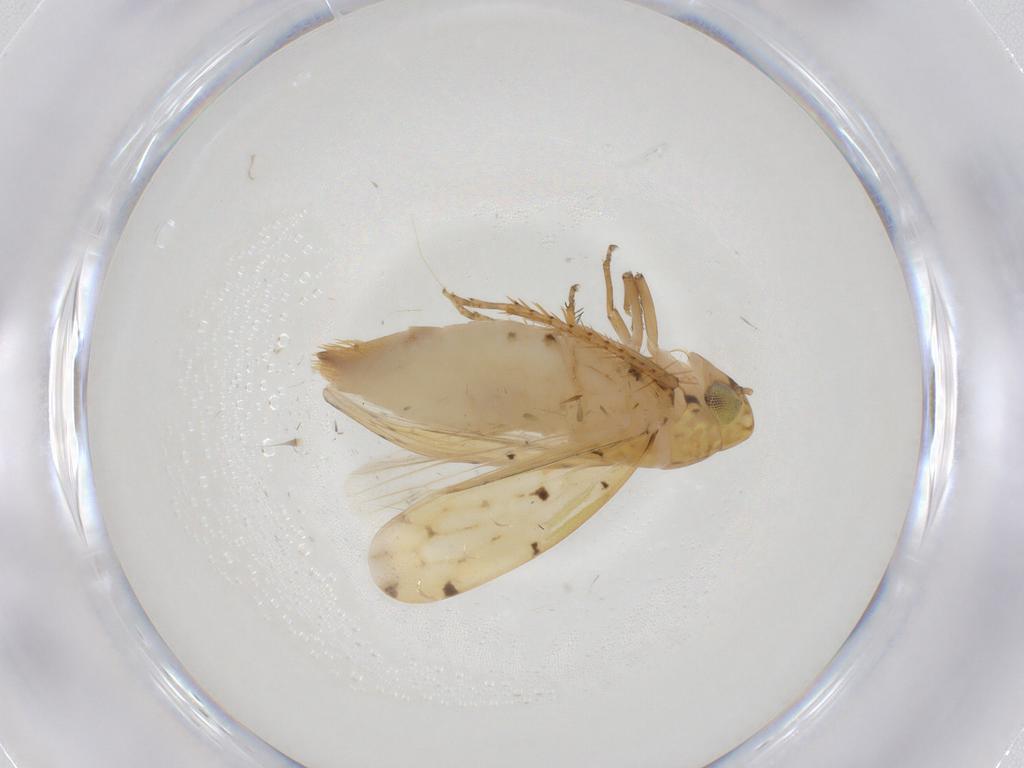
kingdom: Animalia
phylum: Arthropoda
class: Insecta
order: Hemiptera
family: Cicadellidae
